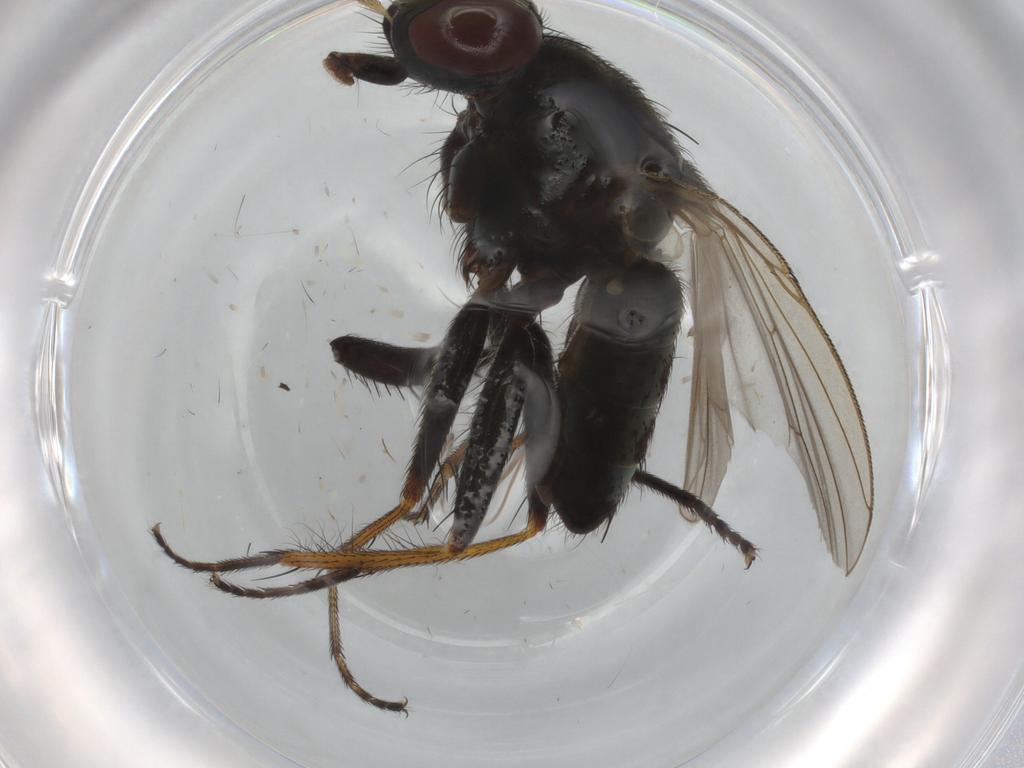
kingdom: Animalia
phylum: Arthropoda
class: Insecta
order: Diptera
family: Muscidae
